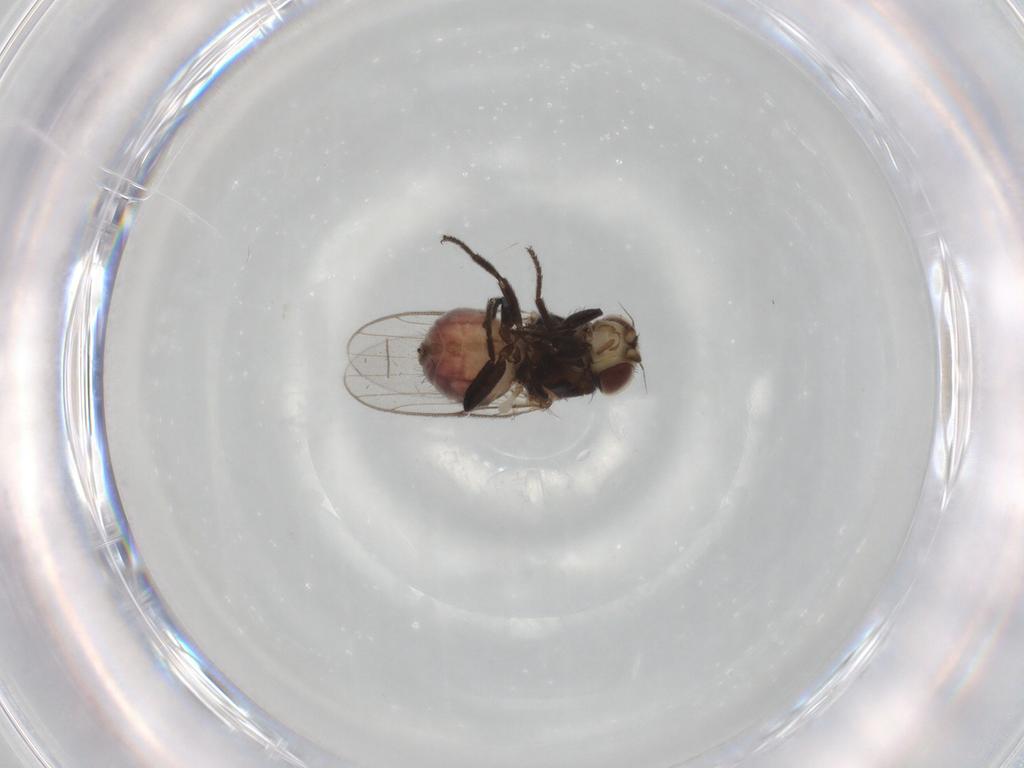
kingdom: Animalia
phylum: Arthropoda
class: Insecta
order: Diptera
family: Chloropidae
